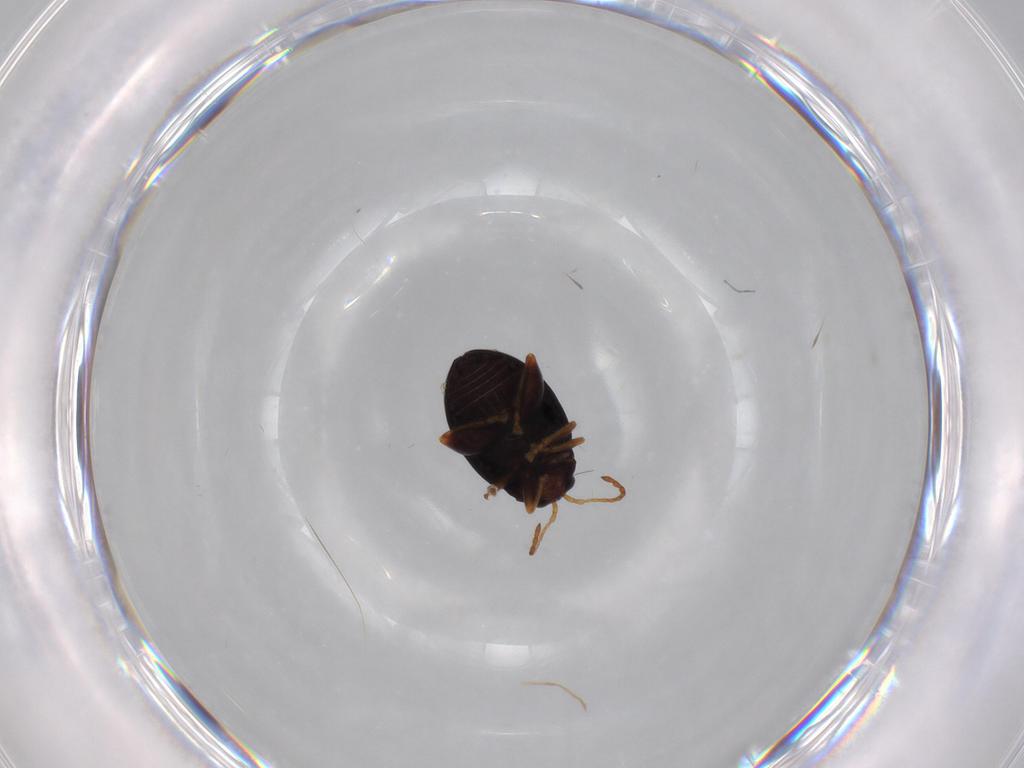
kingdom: Animalia
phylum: Arthropoda
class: Insecta
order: Coleoptera
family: Chrysomelidae
